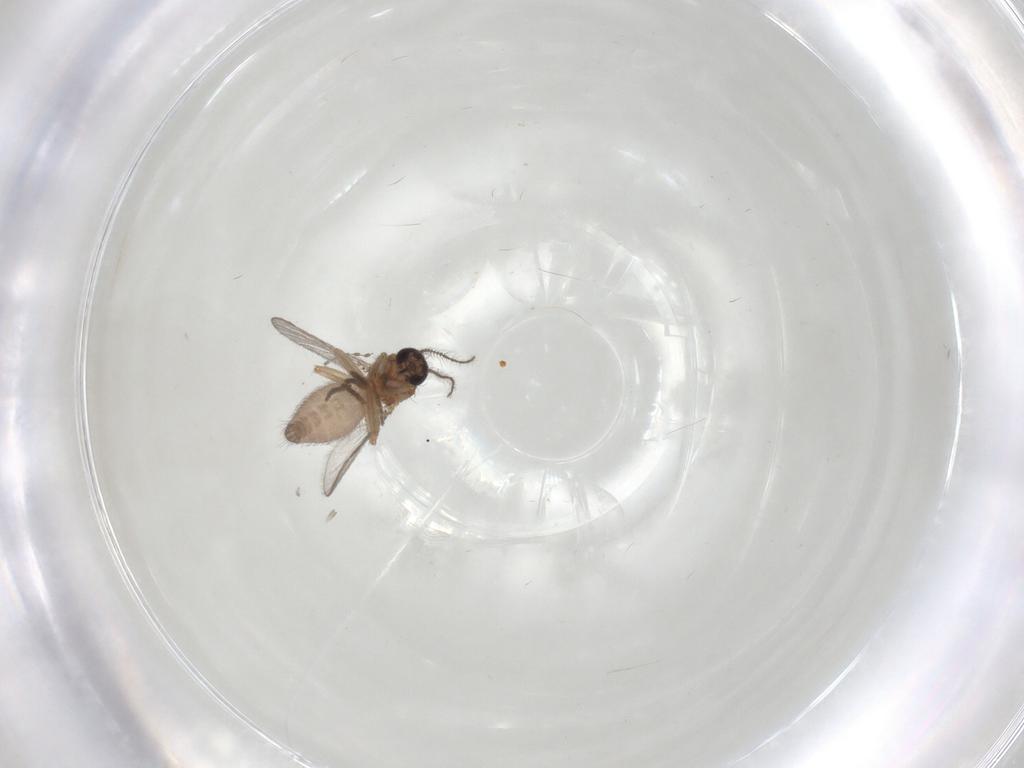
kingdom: Animalia
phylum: Arthropoda
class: Insecta
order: Diptera
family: Ceratopogonidae
